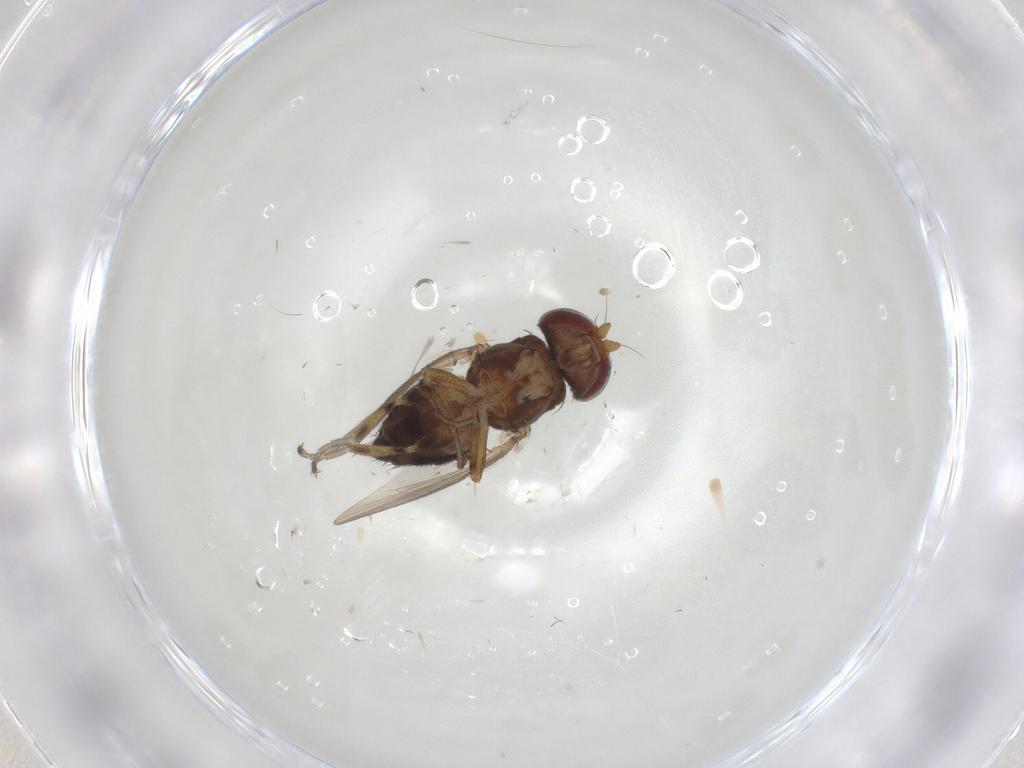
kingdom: Animalia
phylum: Arthropoda
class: Insecta
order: Diptera
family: Heleomyzidae
